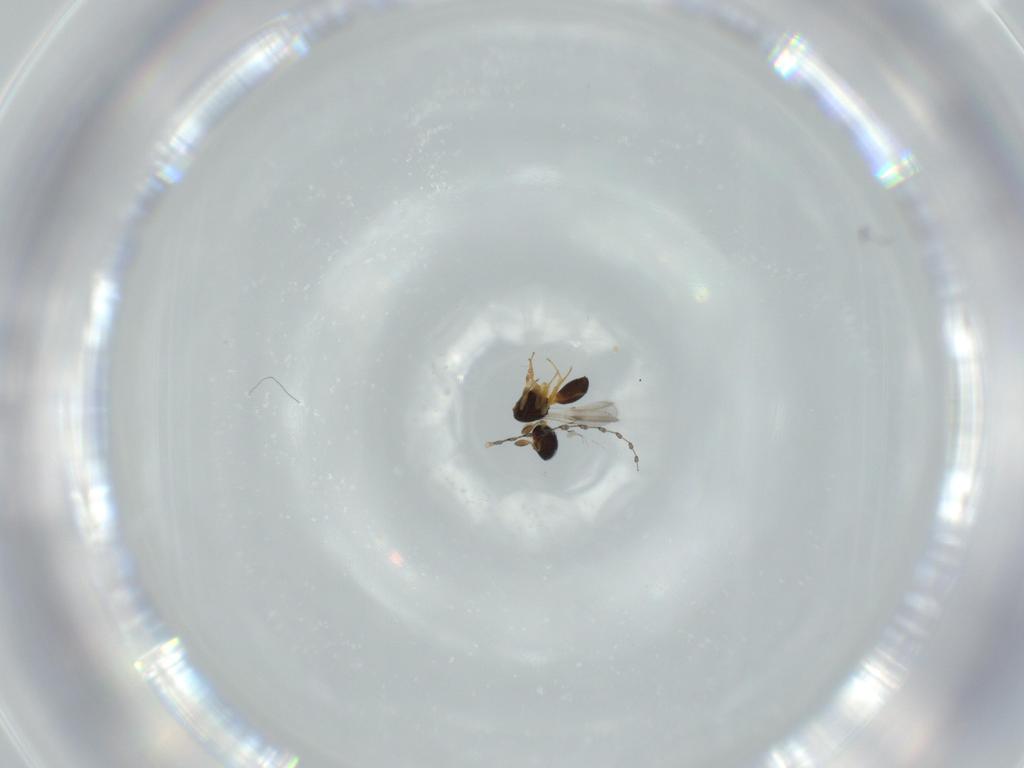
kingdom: Animalia
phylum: Arthropoda
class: Insecta
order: Hymenoptera
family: Scelionidae
